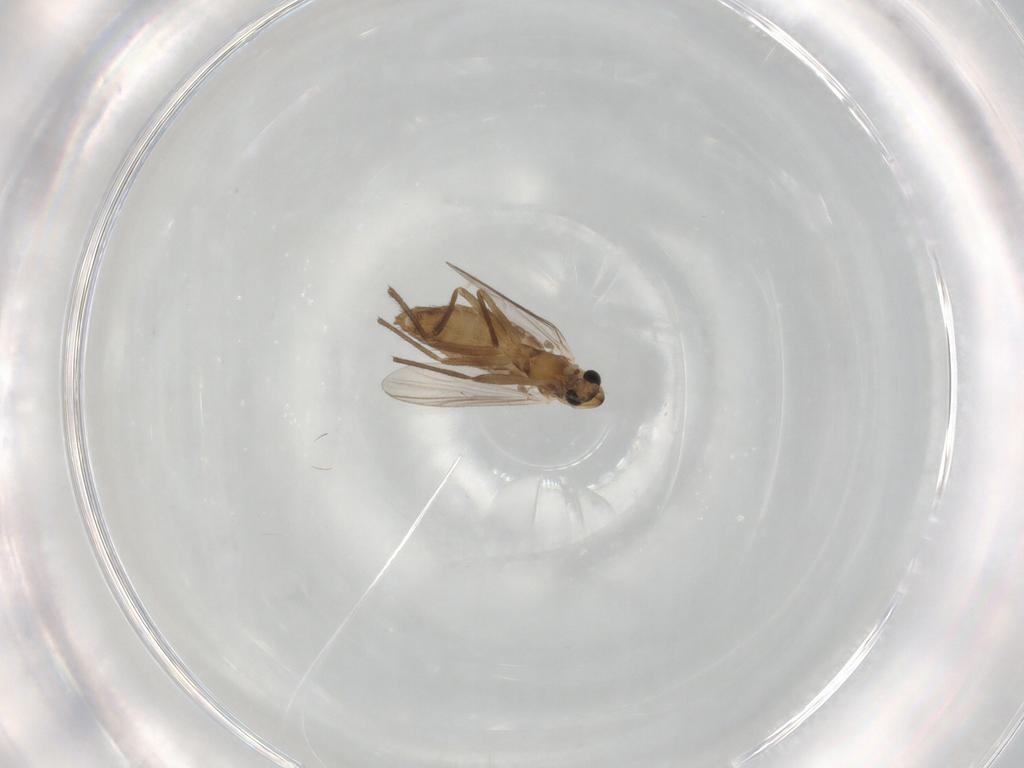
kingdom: Animalia
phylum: Arthropoda
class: Insecta
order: Diptera
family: Chironomidae
